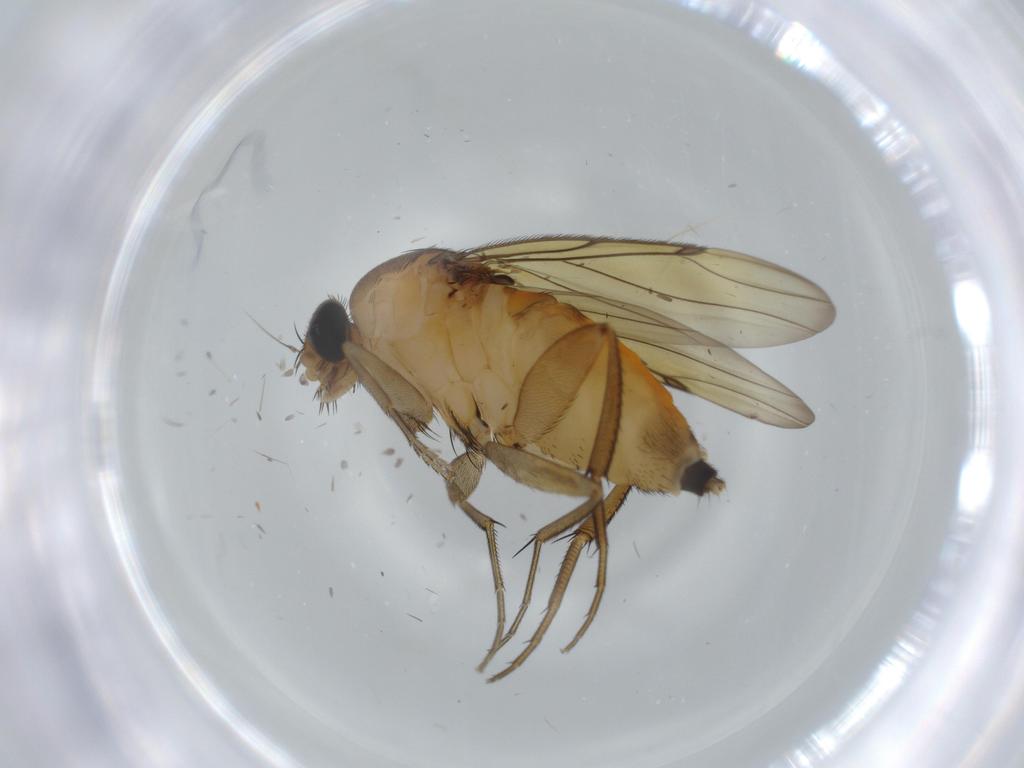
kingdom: Animalia
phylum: Arthropoda
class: Insecta
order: Diptera
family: Phoridae
